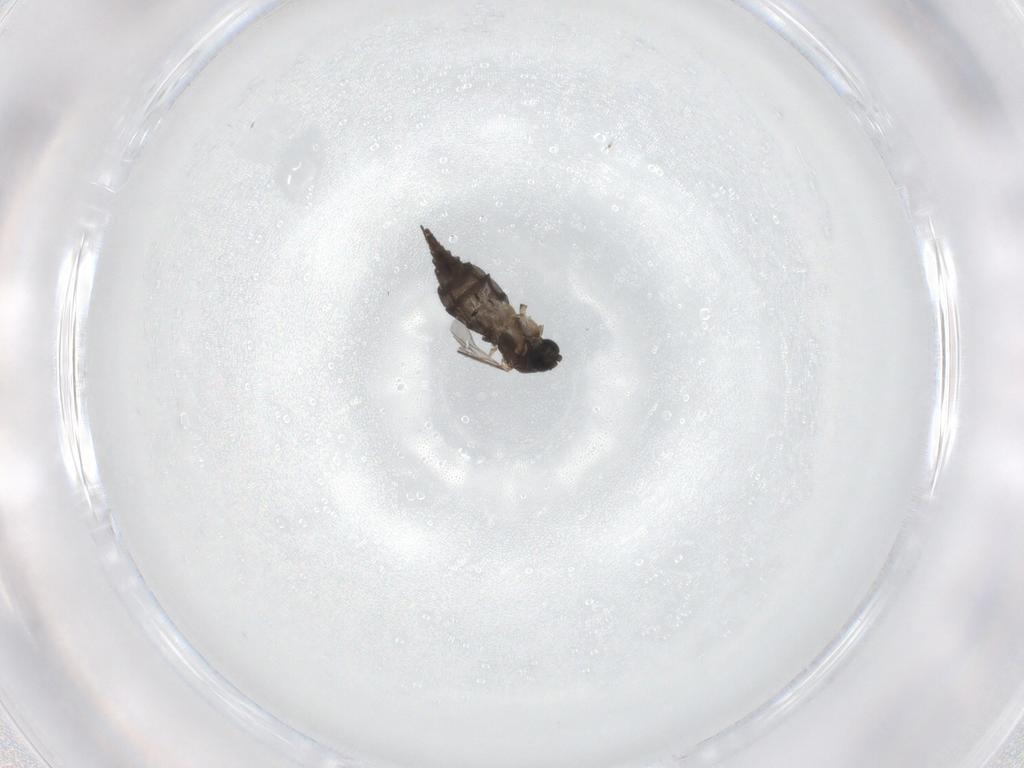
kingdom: Animalia
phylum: Arthropoda
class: Insecta
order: Diptera
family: Sciaridae
